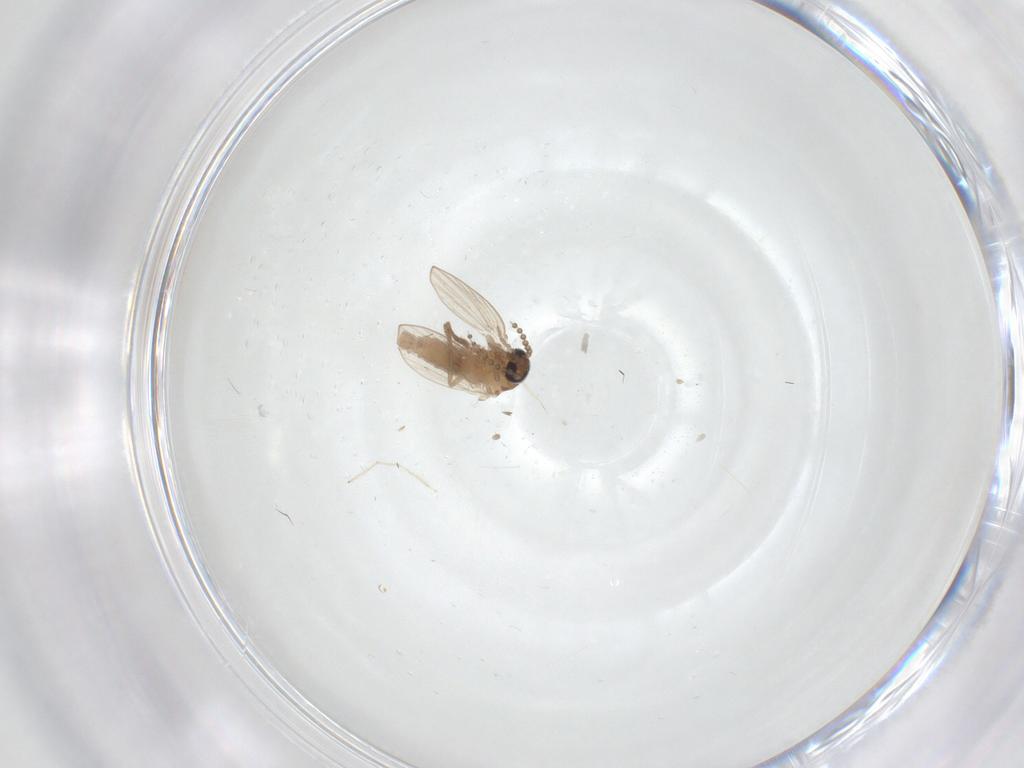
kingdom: Animalia
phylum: Arthropoda
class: Insecta
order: Diptera
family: Psychodidae
